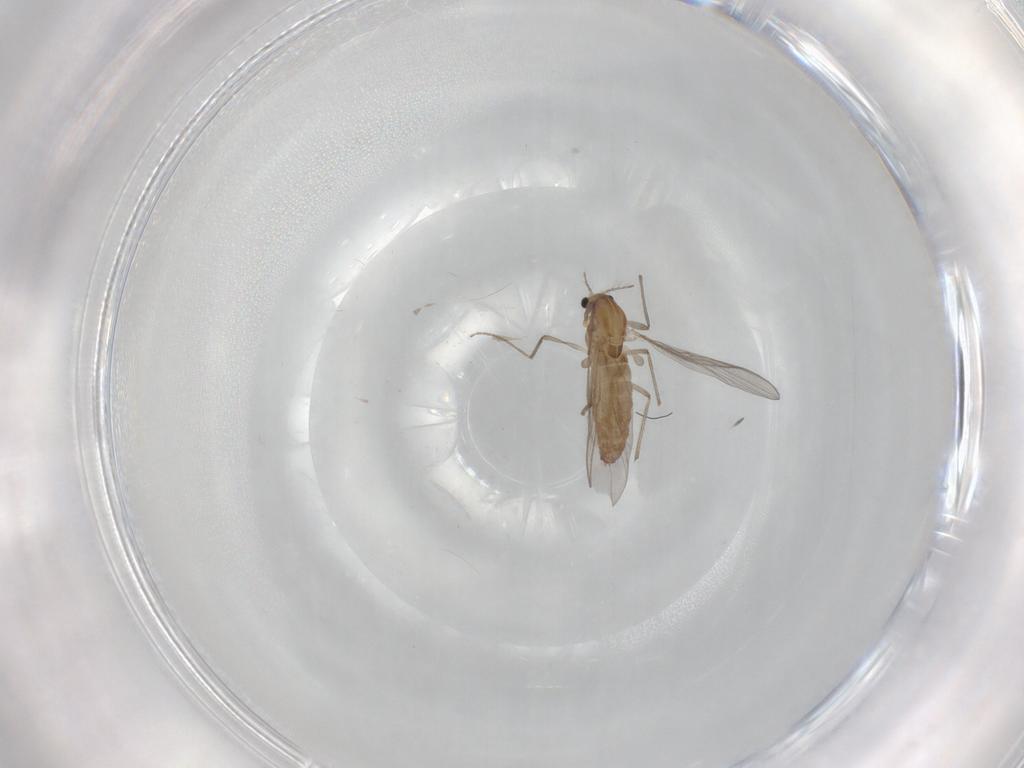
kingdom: Animalia
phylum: Arthropoda
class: Insecta
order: Diptera
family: Chironomidae
